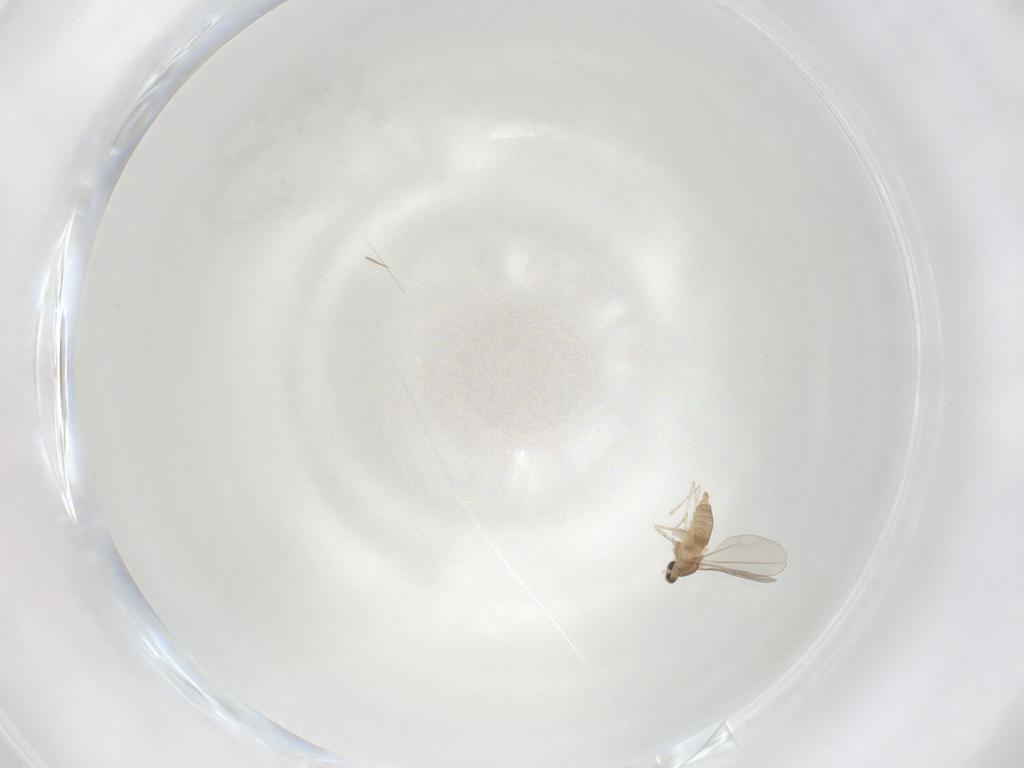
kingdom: Animalia
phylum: Arthropoda
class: Insecta
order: Diptera
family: Cecidomyiidae
